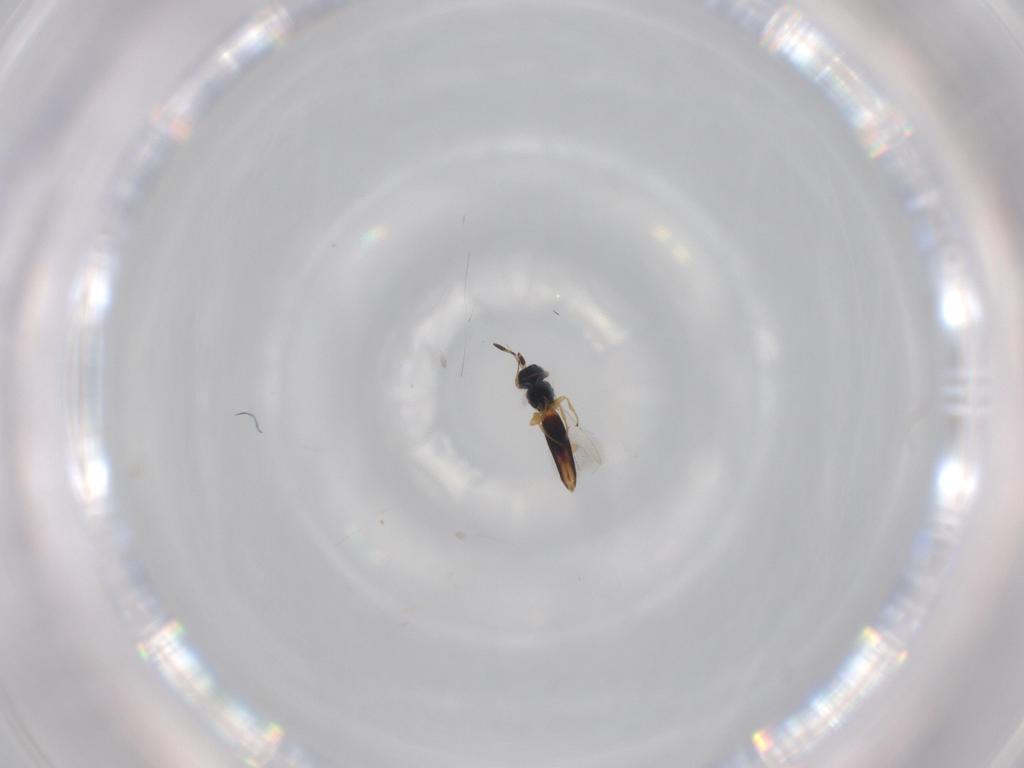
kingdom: Animalia
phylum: Arthropoda
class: Insecta
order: Hymenoptera
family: Scelionidae
